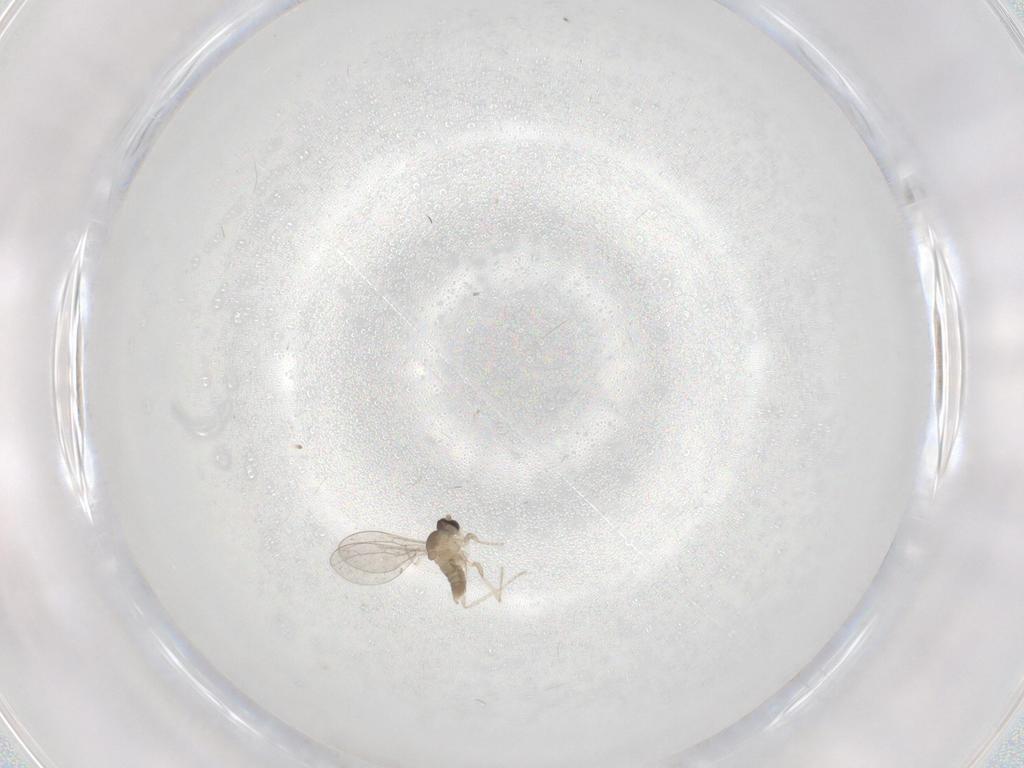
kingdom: Animalia
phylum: Arthropoda
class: Insecta
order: Diptera
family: Cecidomyiidae
